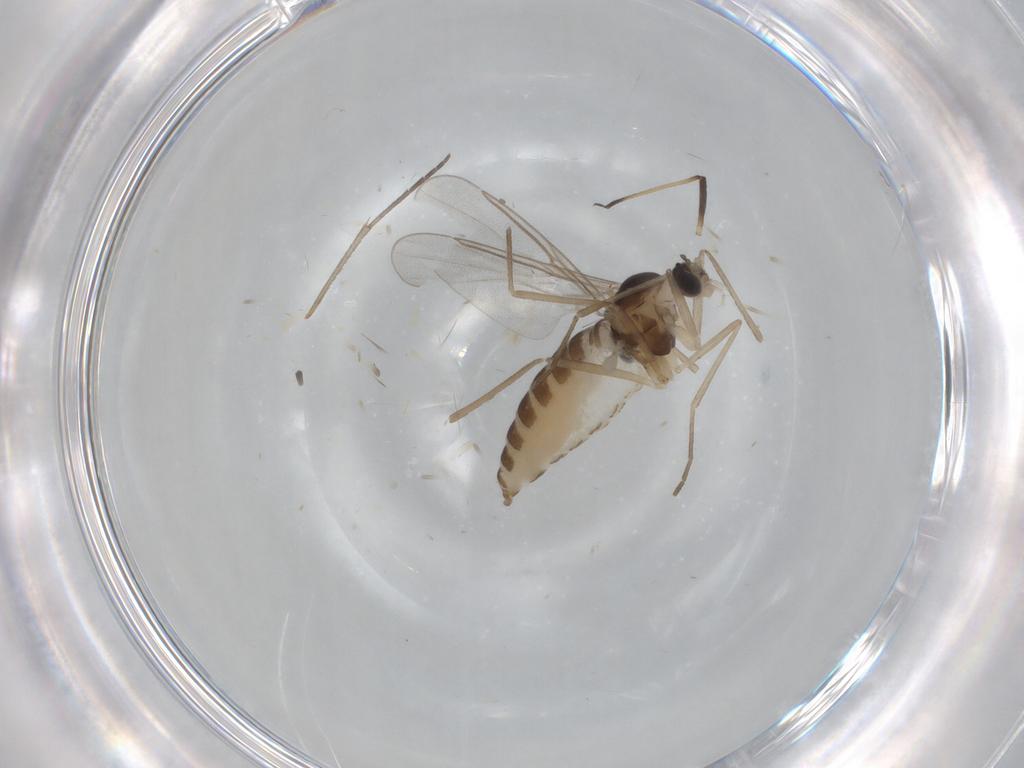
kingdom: Animalia
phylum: Arthropoda
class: Insecta
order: Diptera
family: Cecidomyiidae
